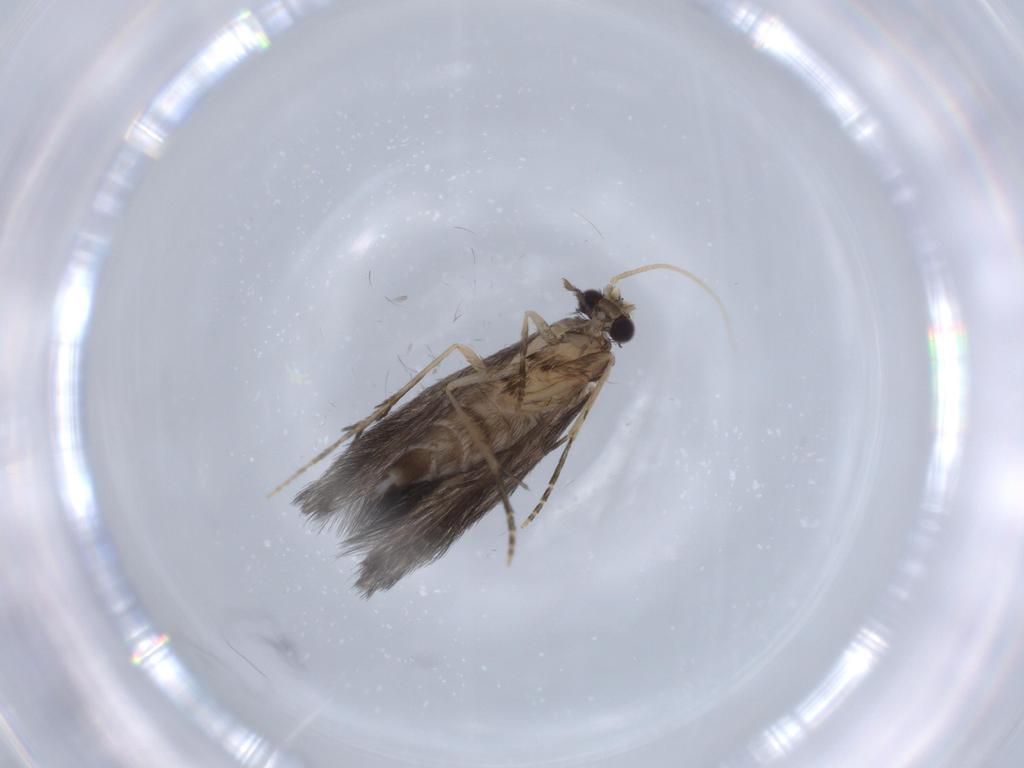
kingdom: Animalia
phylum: Arthropoda
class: Insecta
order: Trichoptera
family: Hydroptilidae
